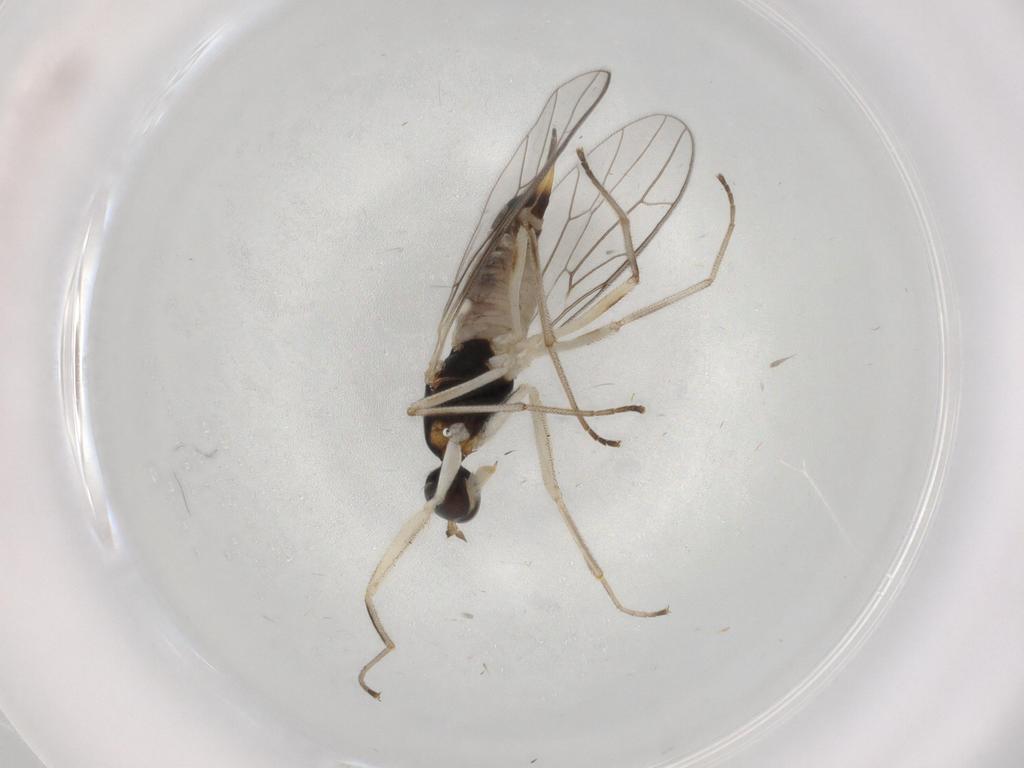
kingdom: Animalia
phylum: Arthropoda
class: Insecta
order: Diptera
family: Empididae
